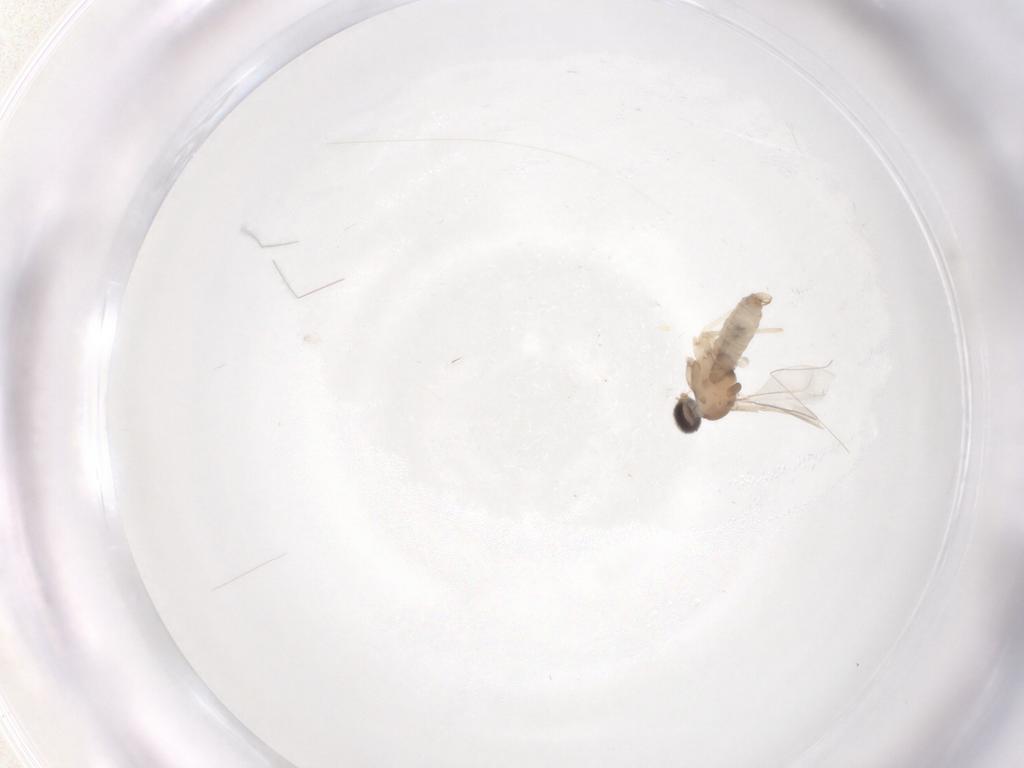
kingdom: Animalia
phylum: Arthropoda
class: Insecta
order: Diptera
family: Cecidomyiidae
